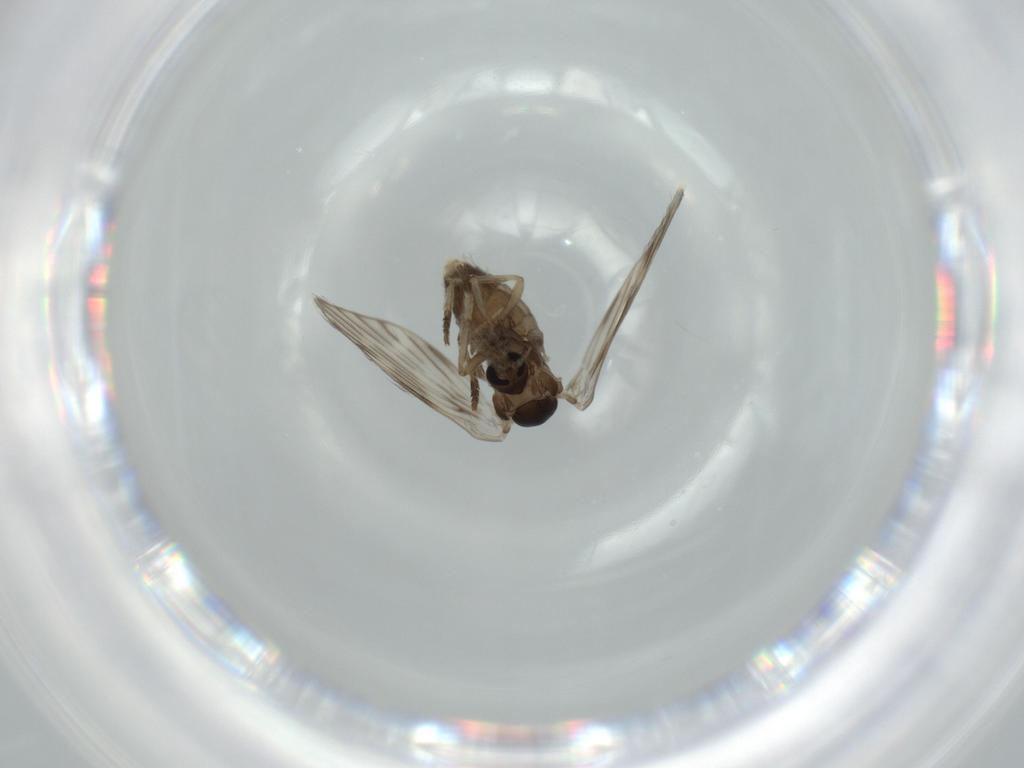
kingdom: Animalia
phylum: Arthropoda
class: Insecta
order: Diptera
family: Psychodidae
